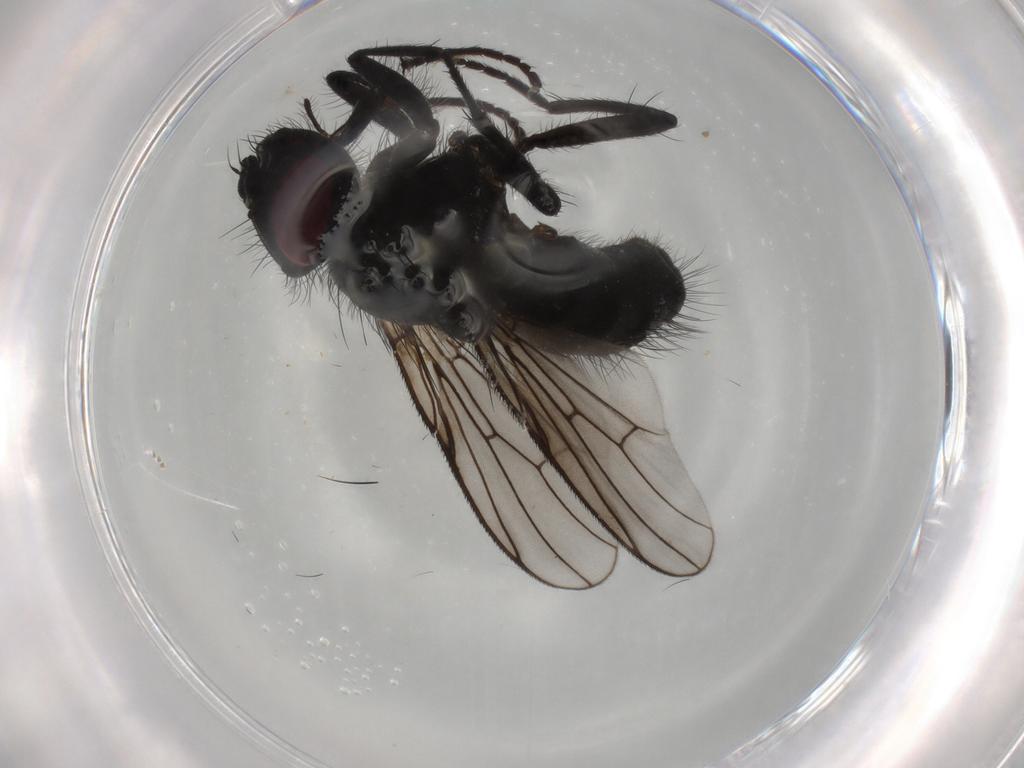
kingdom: Animalia
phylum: Arthropoda
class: Insecta
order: Diptera
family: Muscidae
